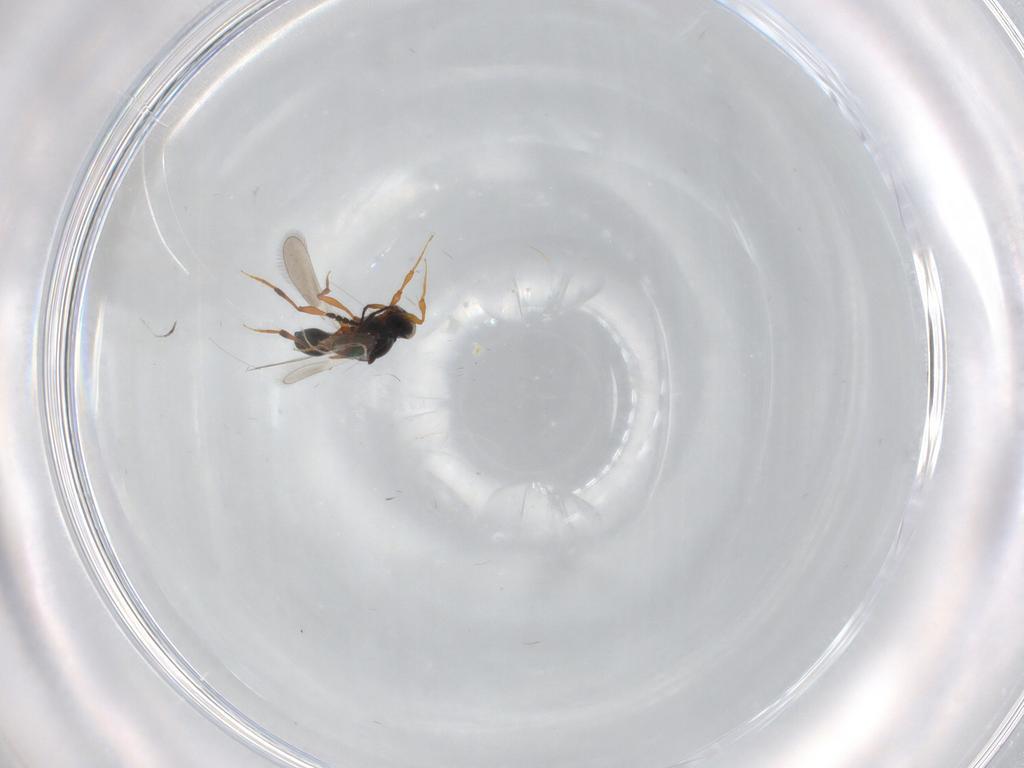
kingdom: Animalia
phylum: Arthropoda
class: Insecta
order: Hymenoptera
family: Platygastridae
